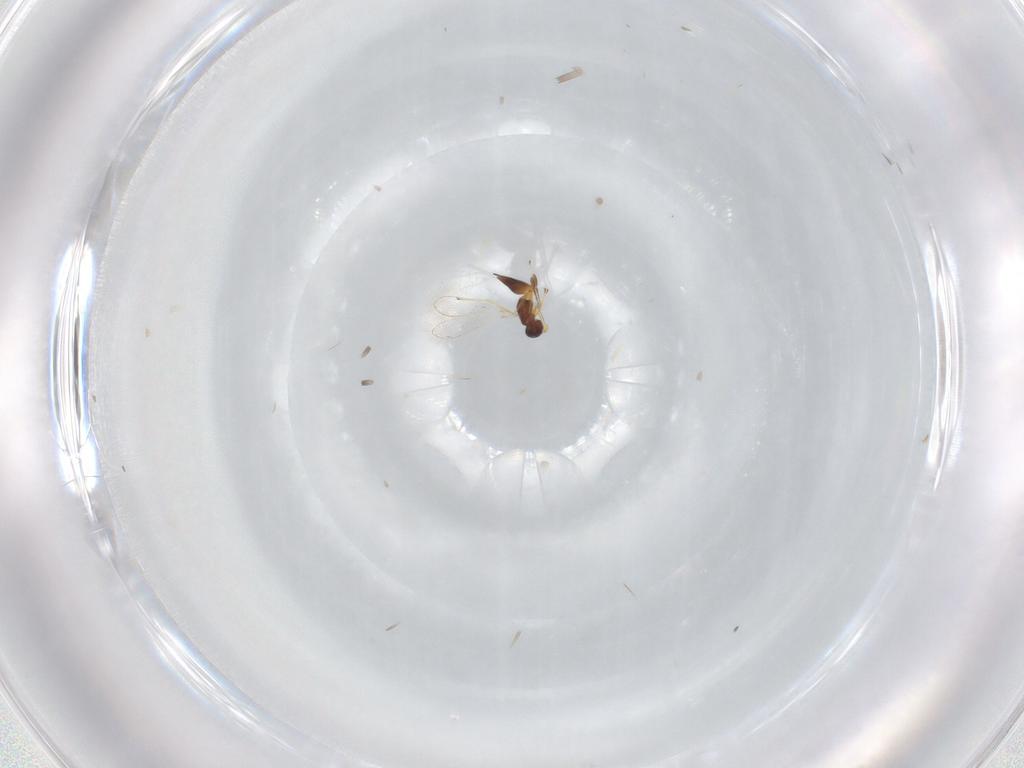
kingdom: Animalia
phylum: Arthropoda
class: Insecta
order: Hymenoptera
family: Mymaridae
